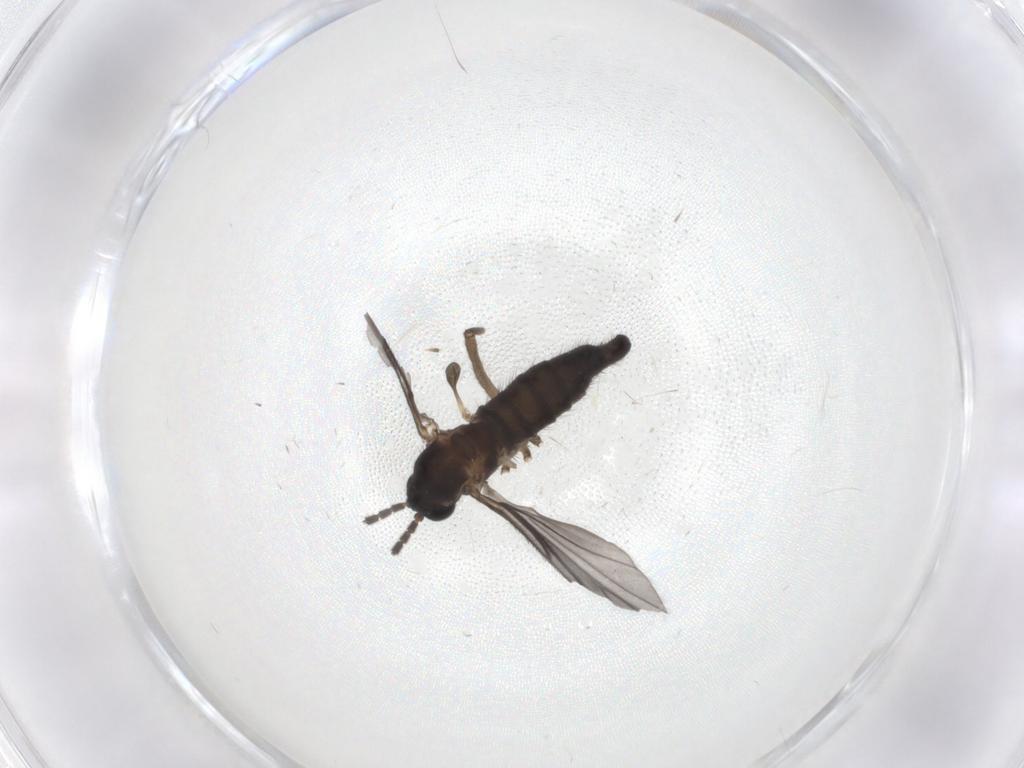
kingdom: Animalia
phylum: Arthropoda
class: Insecta
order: Diptera
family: Sciaridae
